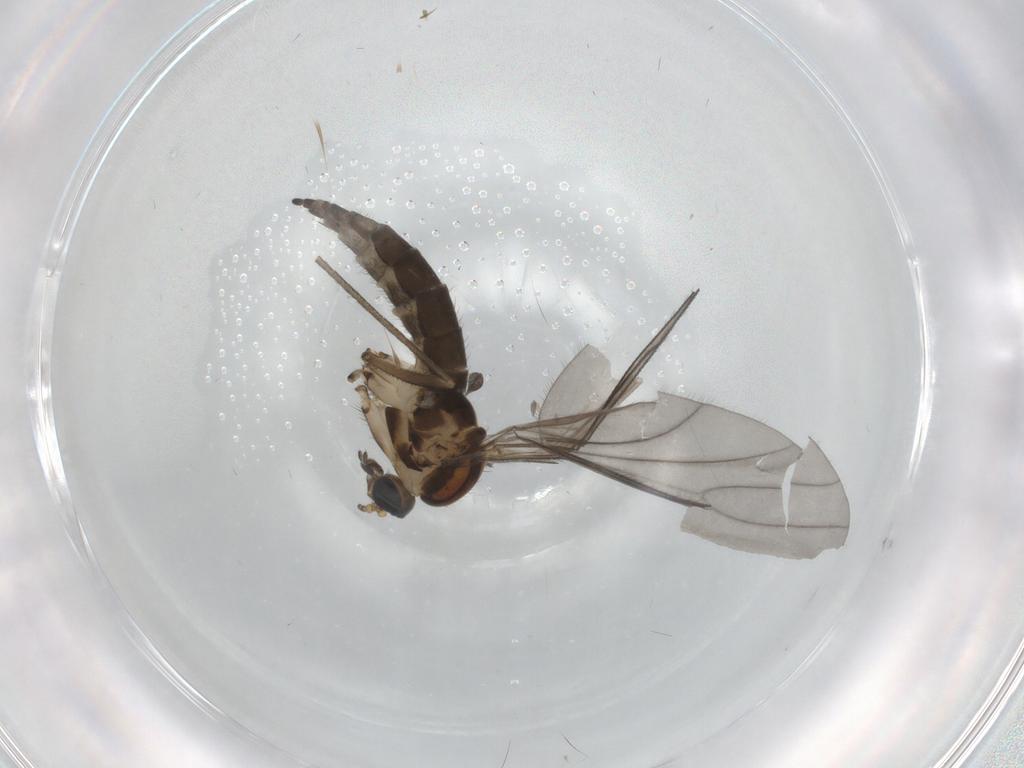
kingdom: Animalia
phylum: Arthropoda
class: Insecta
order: Diptera
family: Sciaridae
